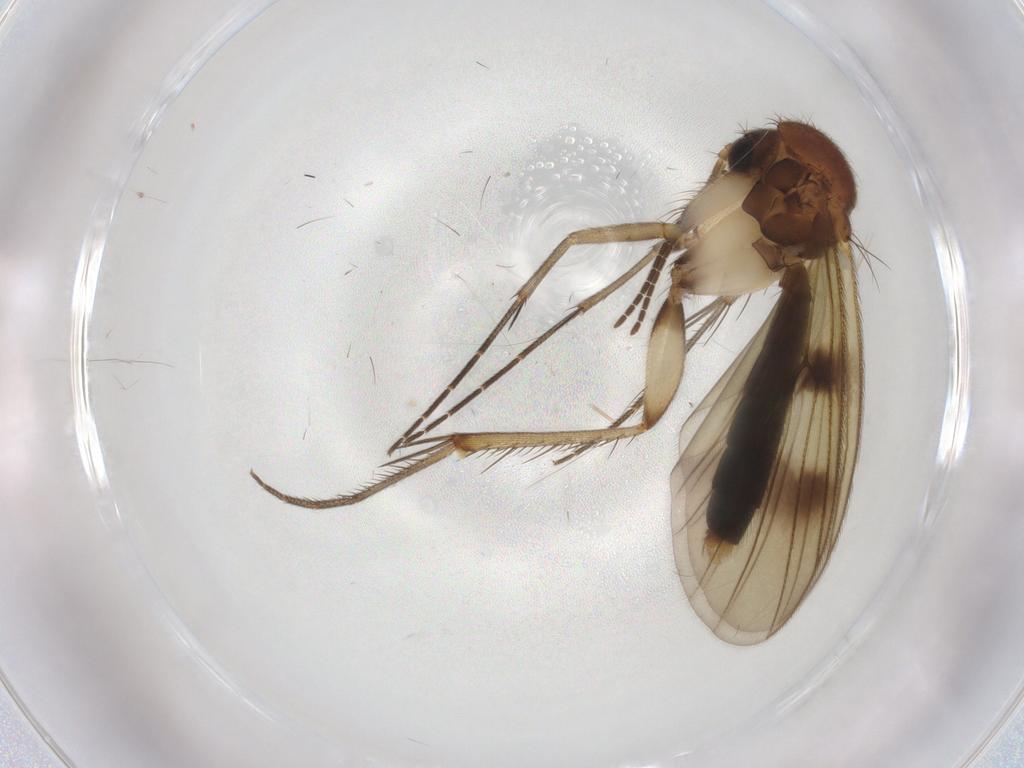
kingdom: Animalia
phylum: Arthropoda
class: Insecta
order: Diptera
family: Mycetophilidae
